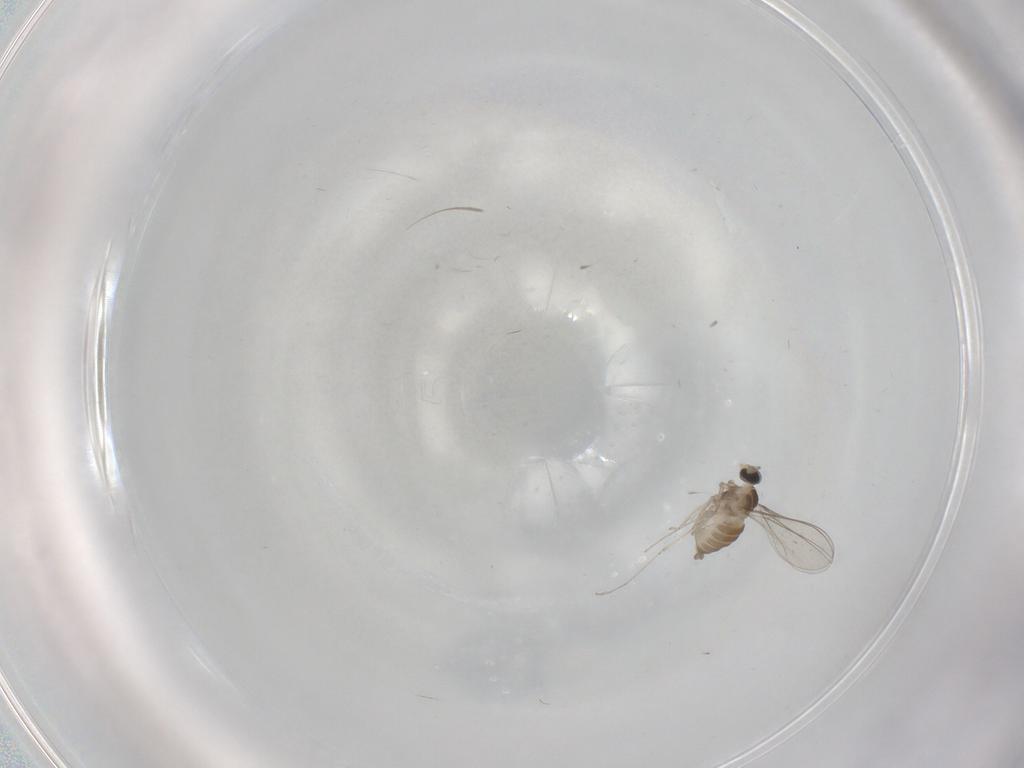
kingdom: Animalia
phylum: Arthropoda
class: Insecta
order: Diptera
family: Cecidomyiidae
